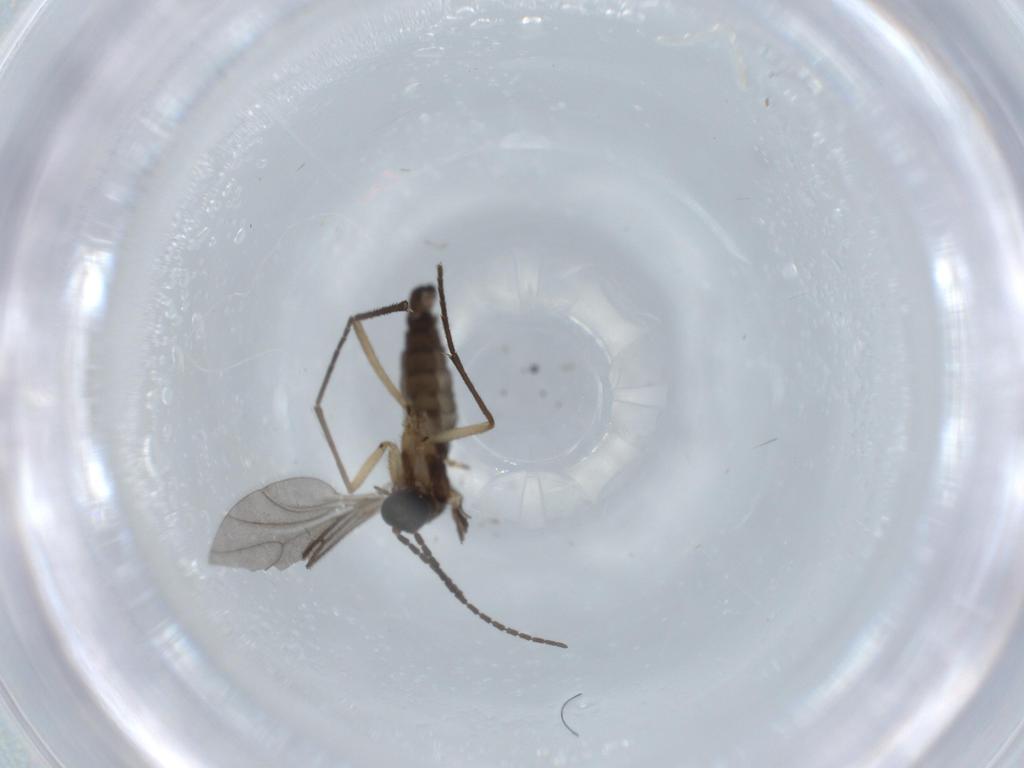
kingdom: Animalia
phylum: Arthropoda
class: Insecta
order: Diptera
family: Sciaridae
